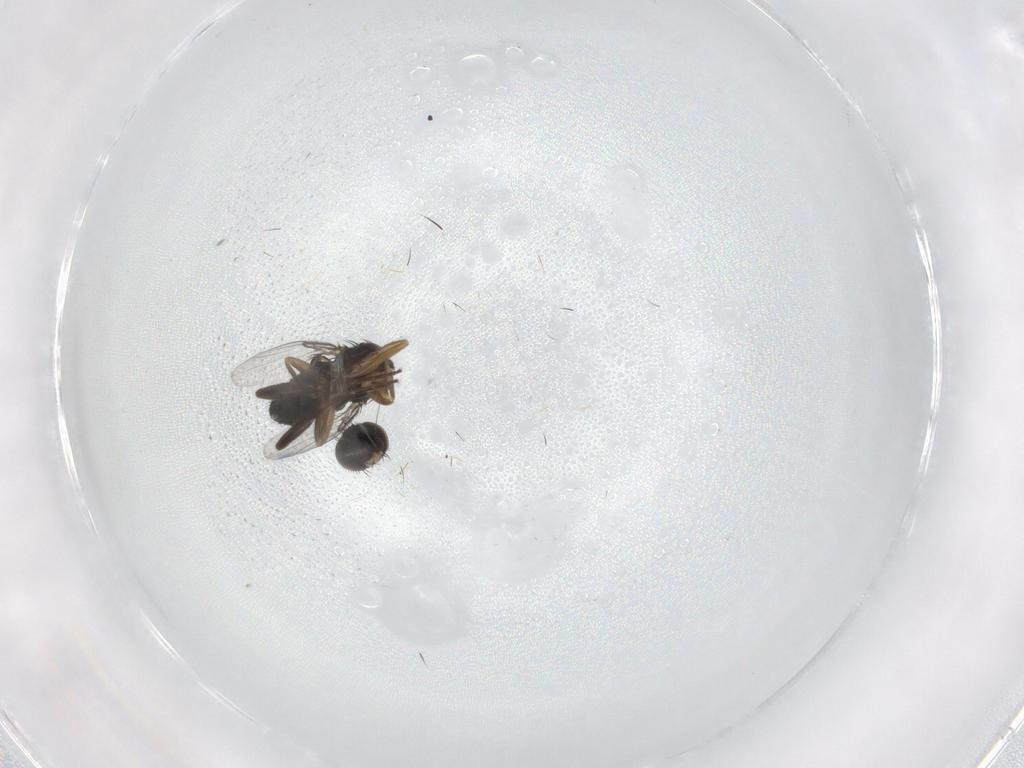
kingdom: Animalia
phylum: Arthropoda
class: Insecta
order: Diptera
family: Phoridae
